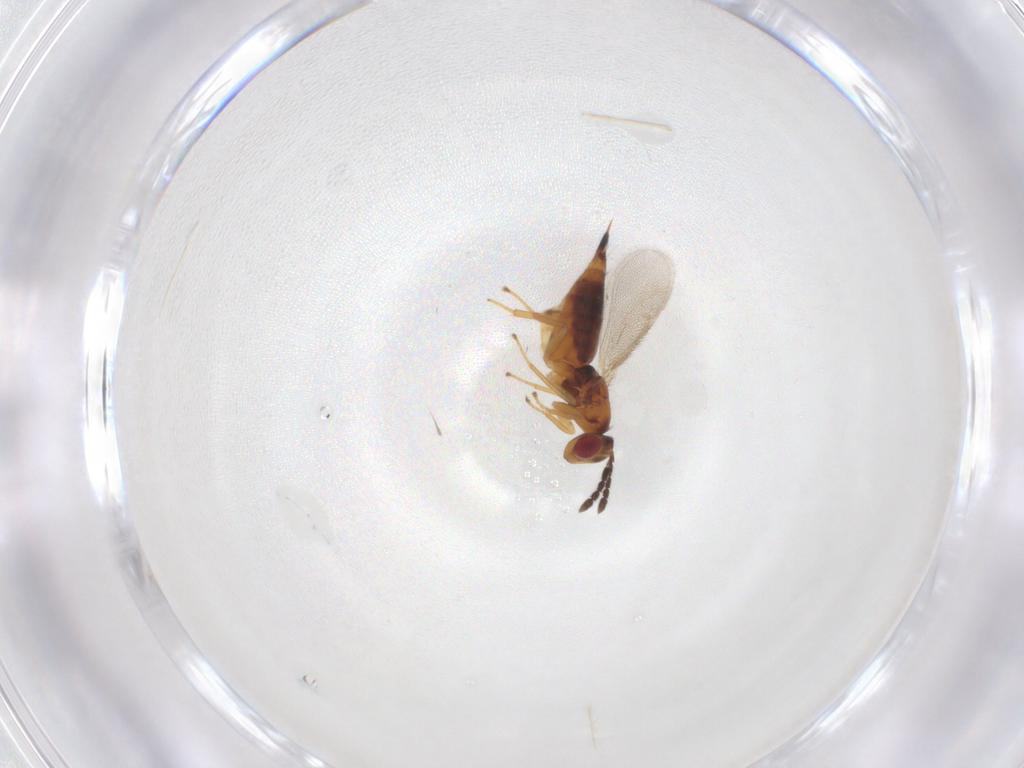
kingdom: Animalia
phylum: Arthropoda
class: Insecta
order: Hymenoptera
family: Eulophidae
